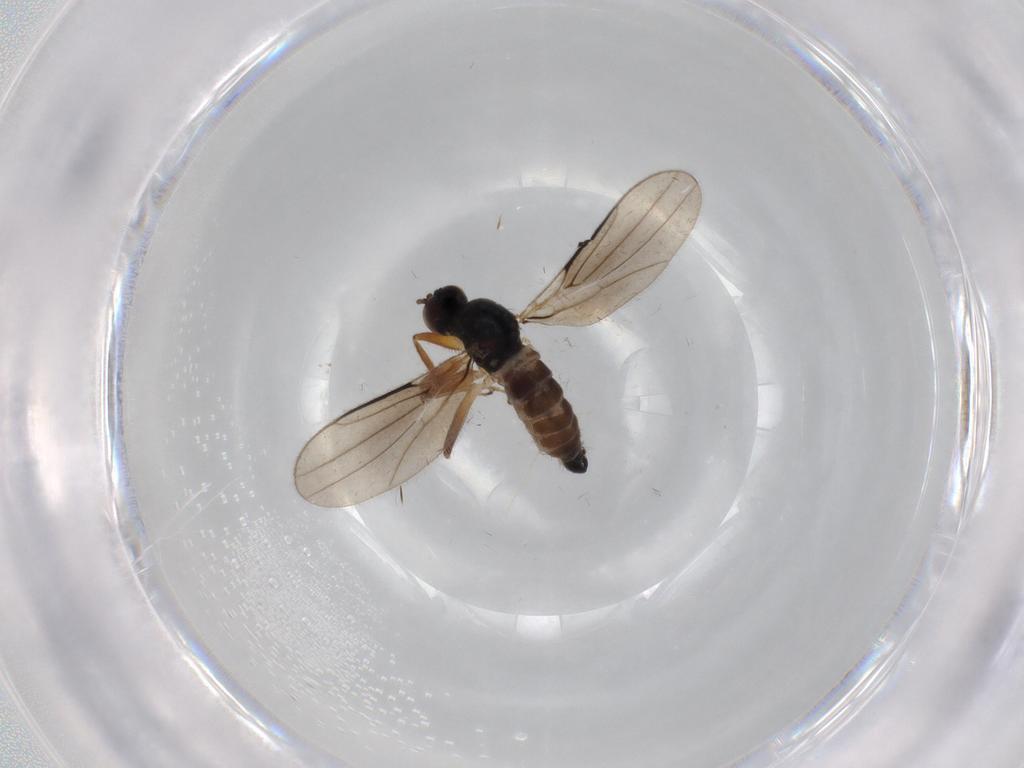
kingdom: Animalia
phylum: Arthropoda
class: Insecta
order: Diptera
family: Hybotidae
